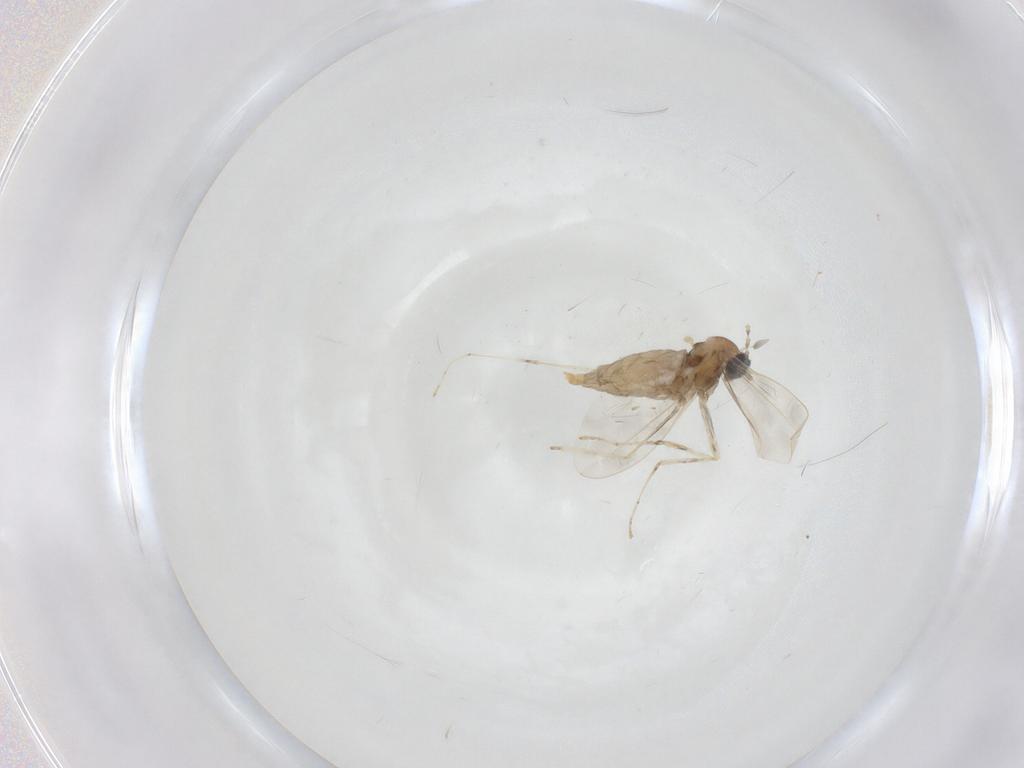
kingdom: Animalia
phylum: Arthropoda
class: Insecta
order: Diptera
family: Cecidomyiidae
